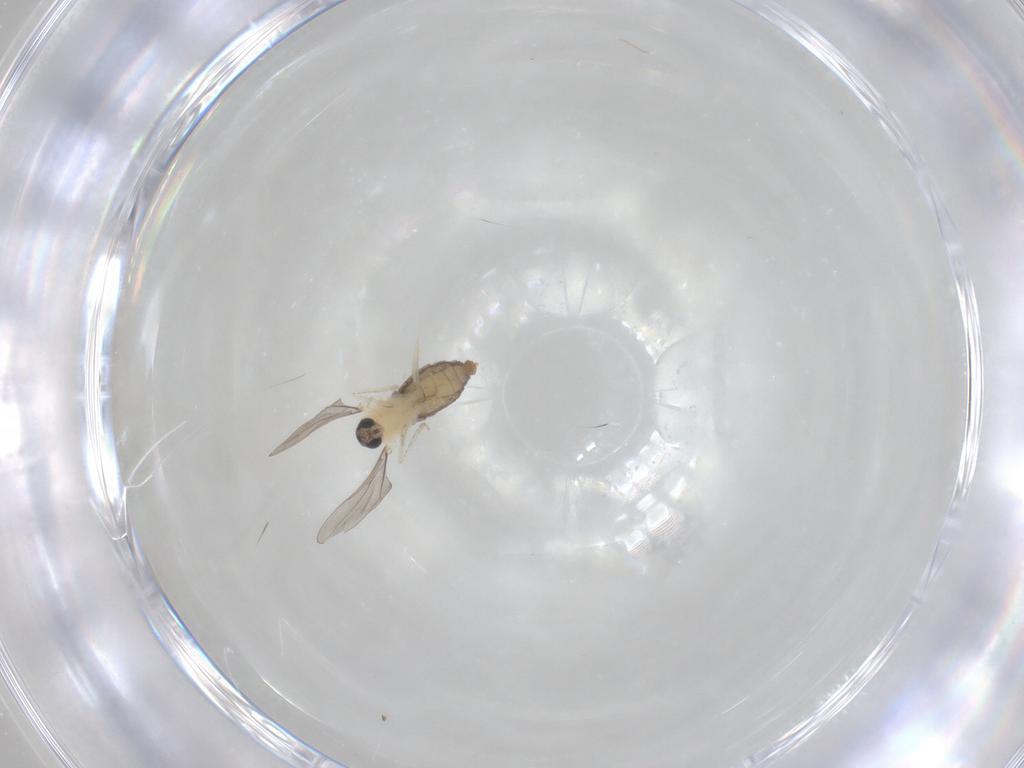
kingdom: Animalia
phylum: Arthropoda
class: Insecta
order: Diptera
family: Cecidomyiidae
